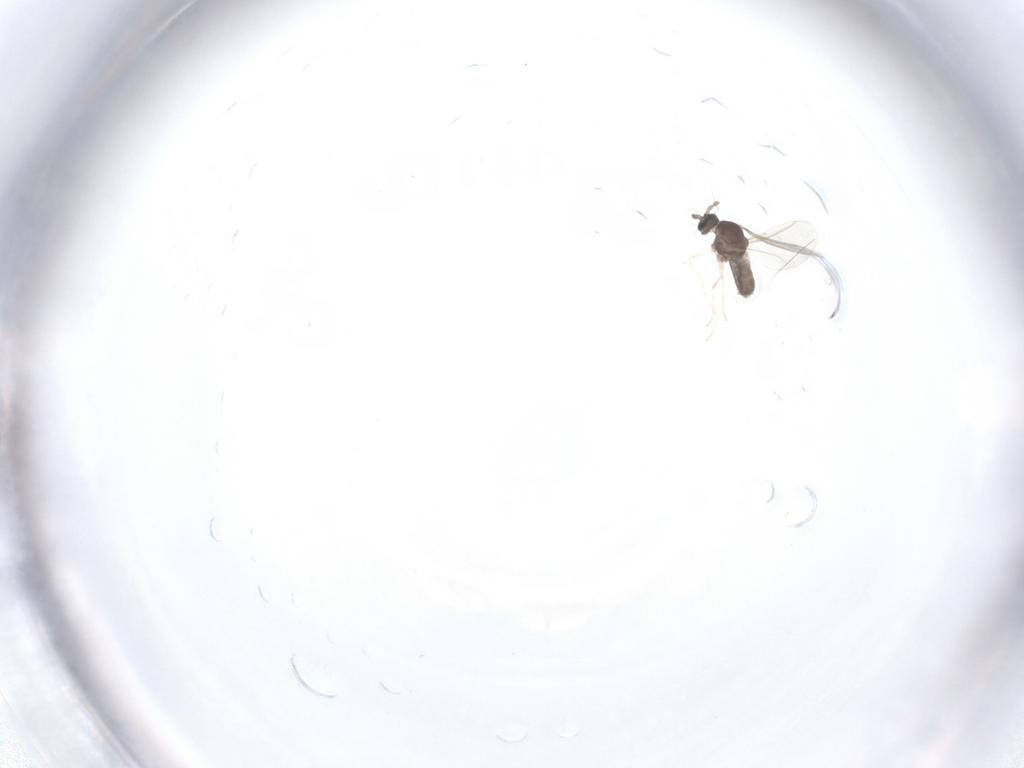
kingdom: Animalia
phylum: Arthropoda
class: Insecta
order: Diptera
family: Cecidomyiidae
